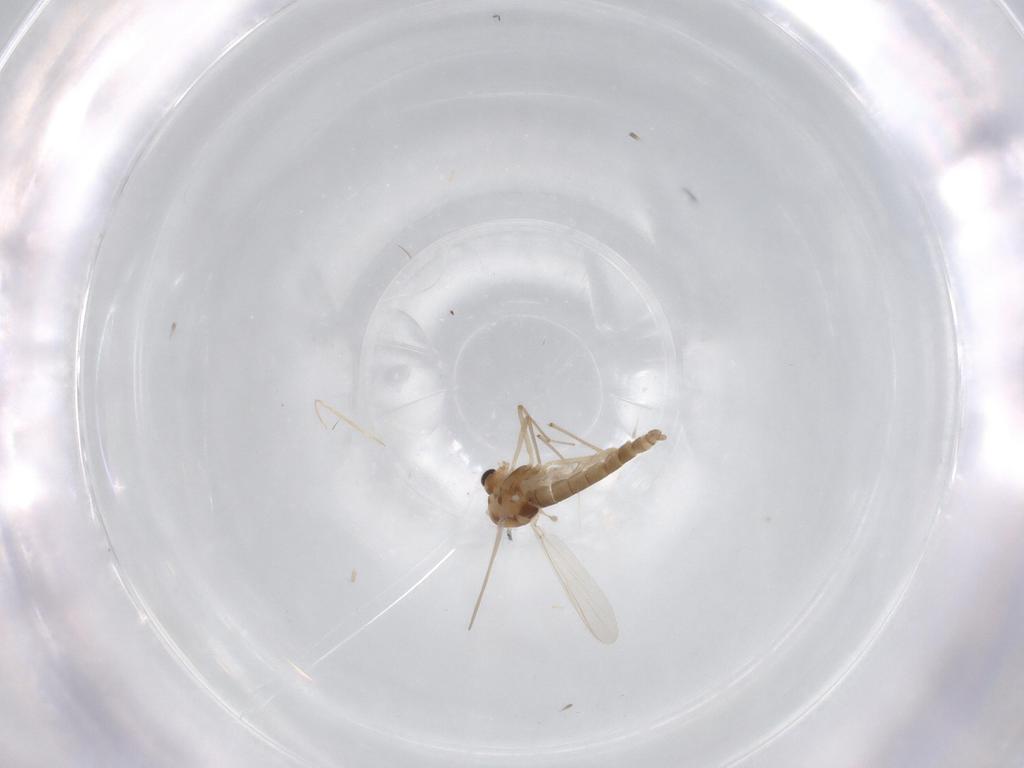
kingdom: Animalia
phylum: Arthropoda
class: Insecta
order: Diptera
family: Chironomidae
